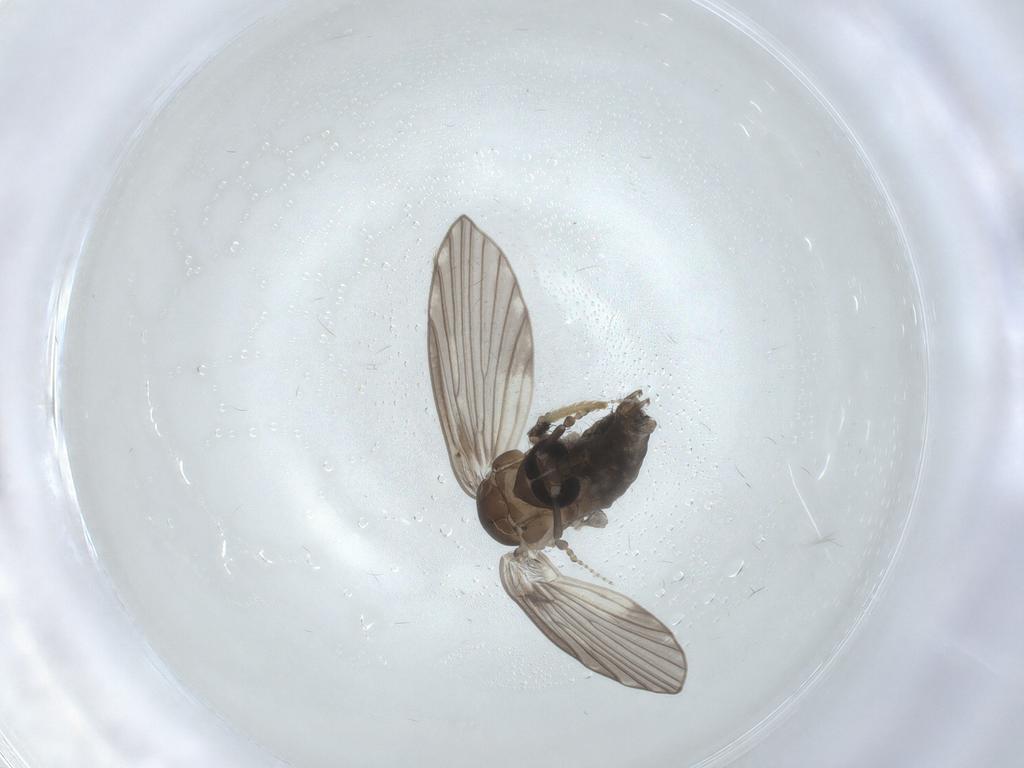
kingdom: Animalia
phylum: Arthropoda
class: Insecta
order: Diptera
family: Psychodidae
